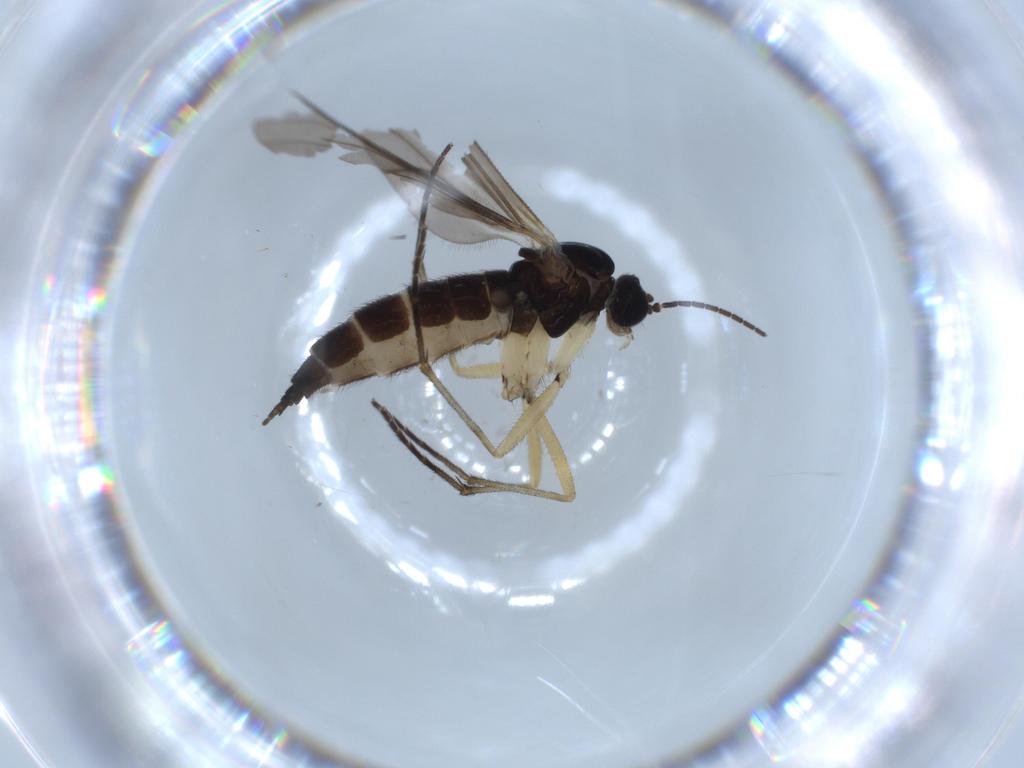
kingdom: Animalia
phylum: Arthropoda
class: Insecta
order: Diptera
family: Sciaridae
